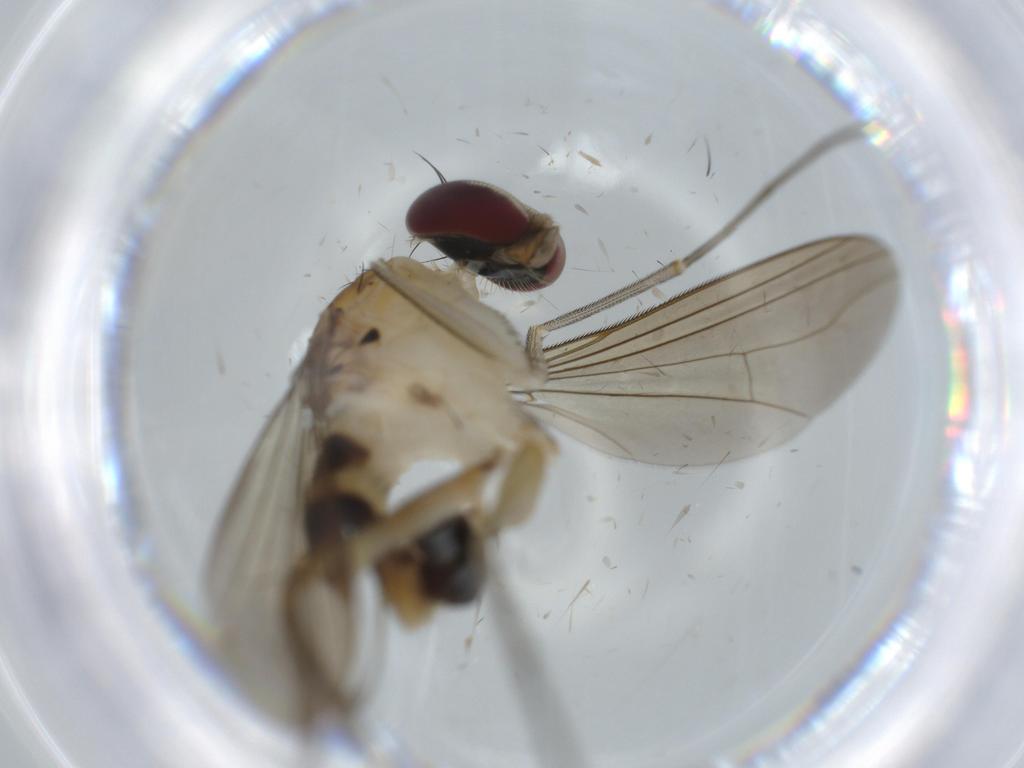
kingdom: Animalia
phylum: Arthropoda
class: Insecta
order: Diptera
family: Dolichopodidae
